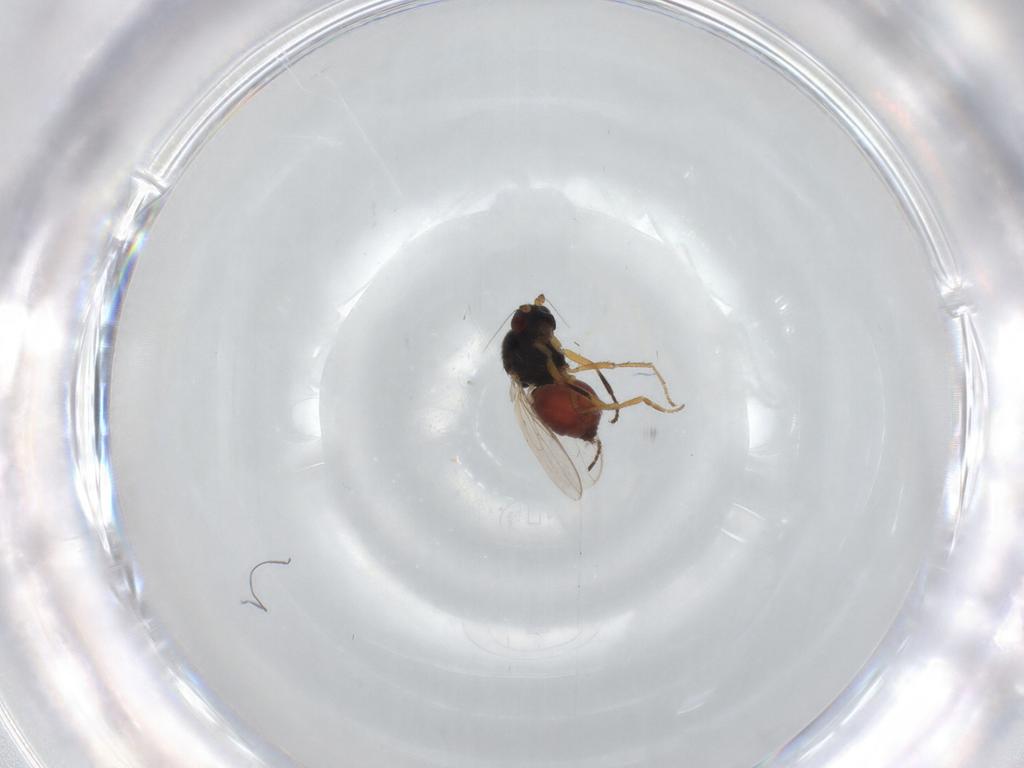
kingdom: Animalia
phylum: Arthropoda
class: Insecta
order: Diptera
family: Sphaeroceridae
